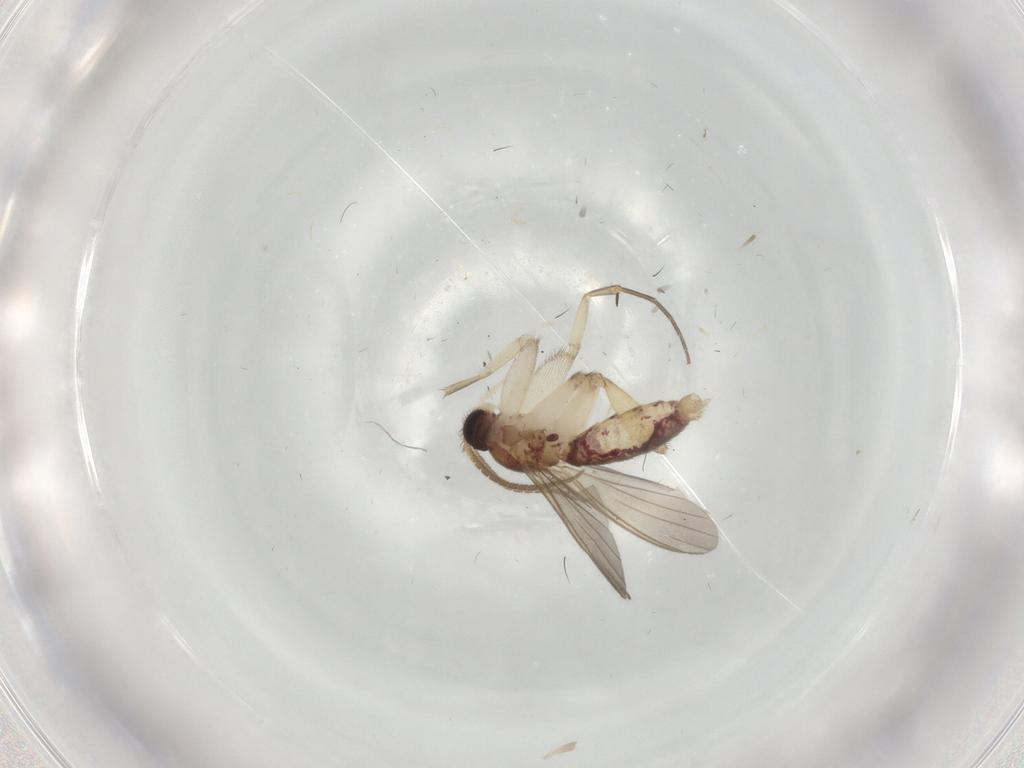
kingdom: Animalia
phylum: Arthropoda
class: Insecta
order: Diptera
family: Mycetophilidae
